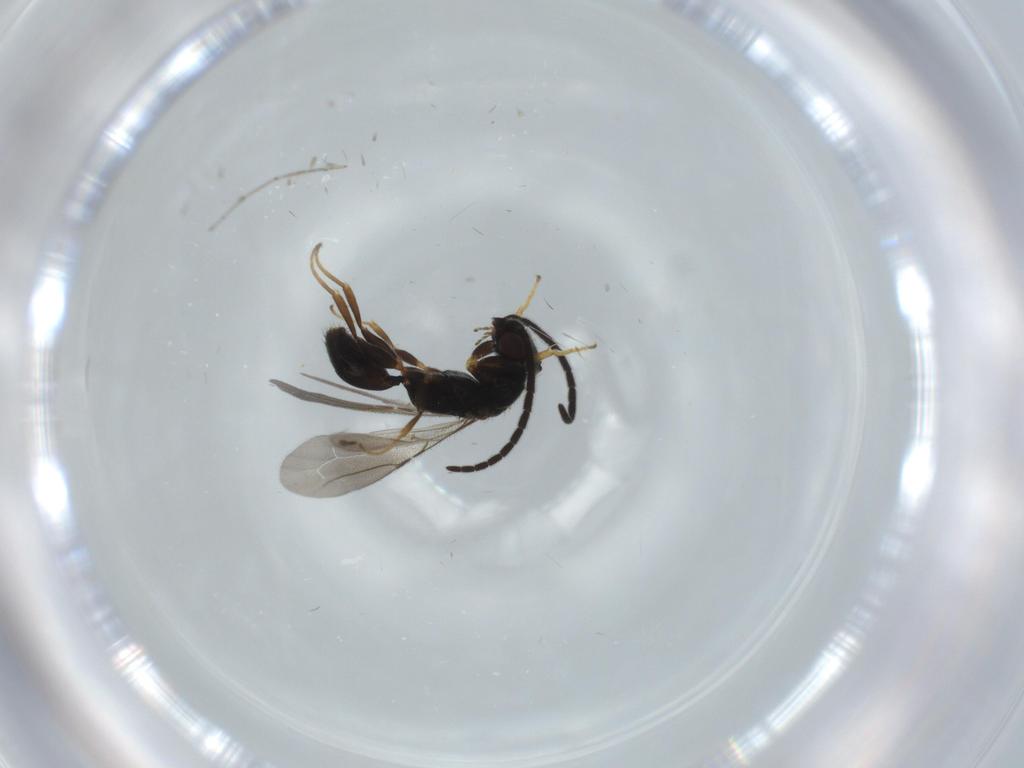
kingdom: Animalia
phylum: Arthropoda
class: Insecta
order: Hymenoptera
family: Bethylidae
